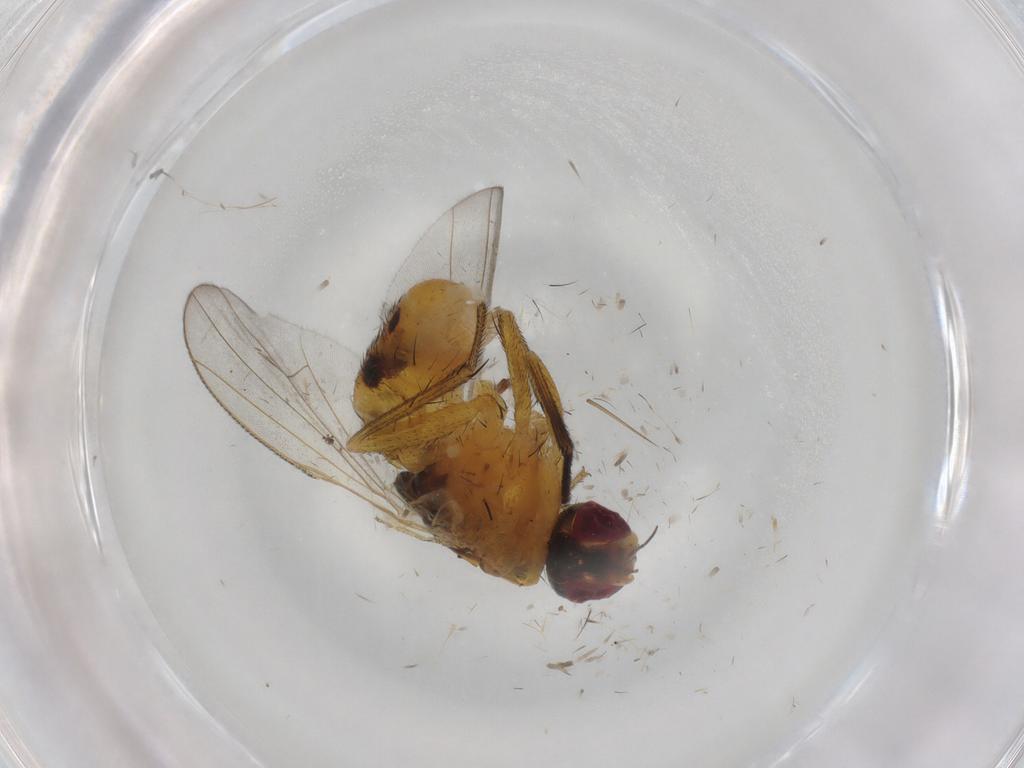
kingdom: Animalia
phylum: Arthropoda
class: Insecta
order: Diptera
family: Muscidae
